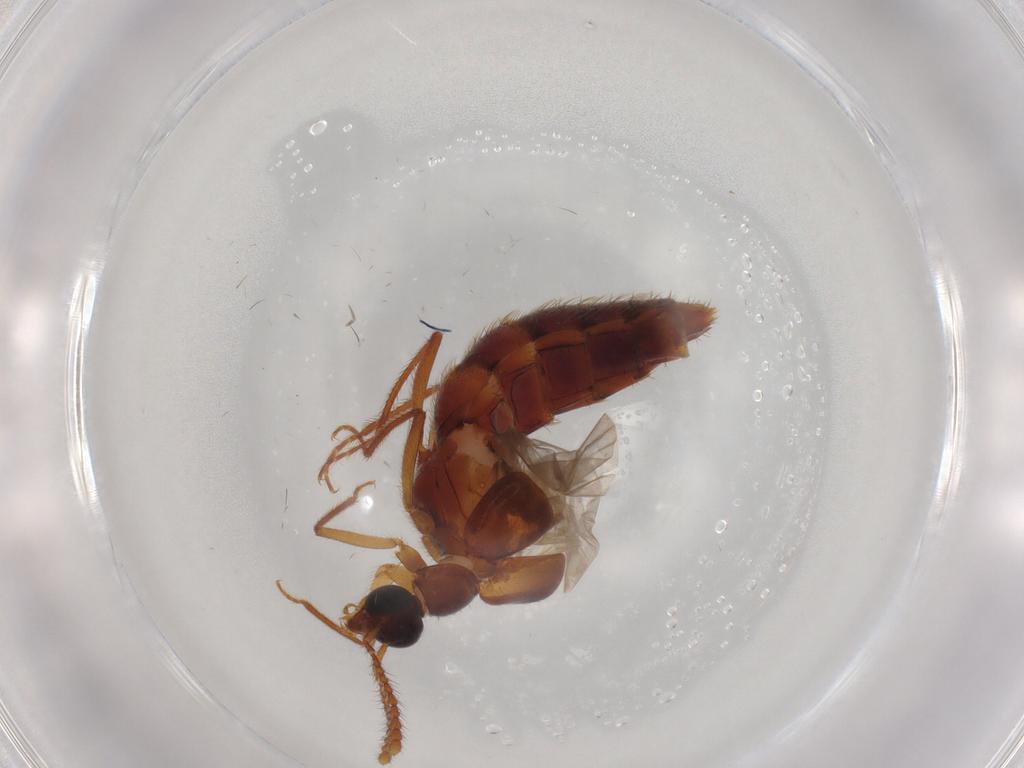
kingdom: Animalia
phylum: Arthropoda
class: Insecta
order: Coleoptera
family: Staphylinidae
